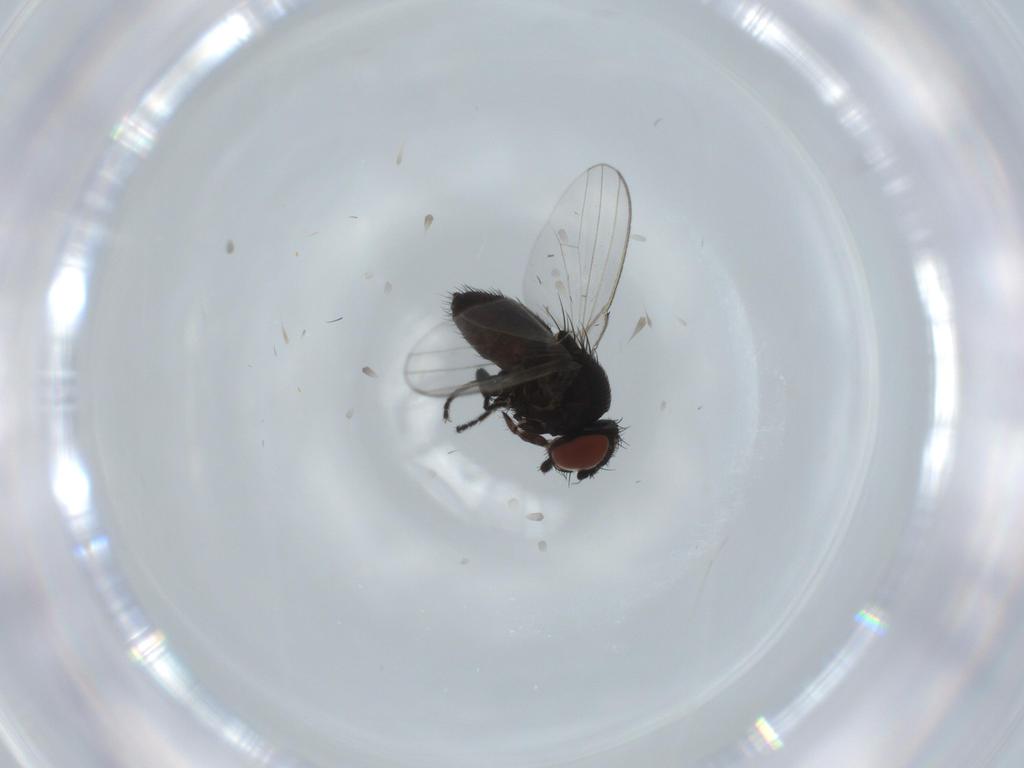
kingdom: Animalia
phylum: Arthropoda
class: Insecta
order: Diptera
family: Milichiidae
